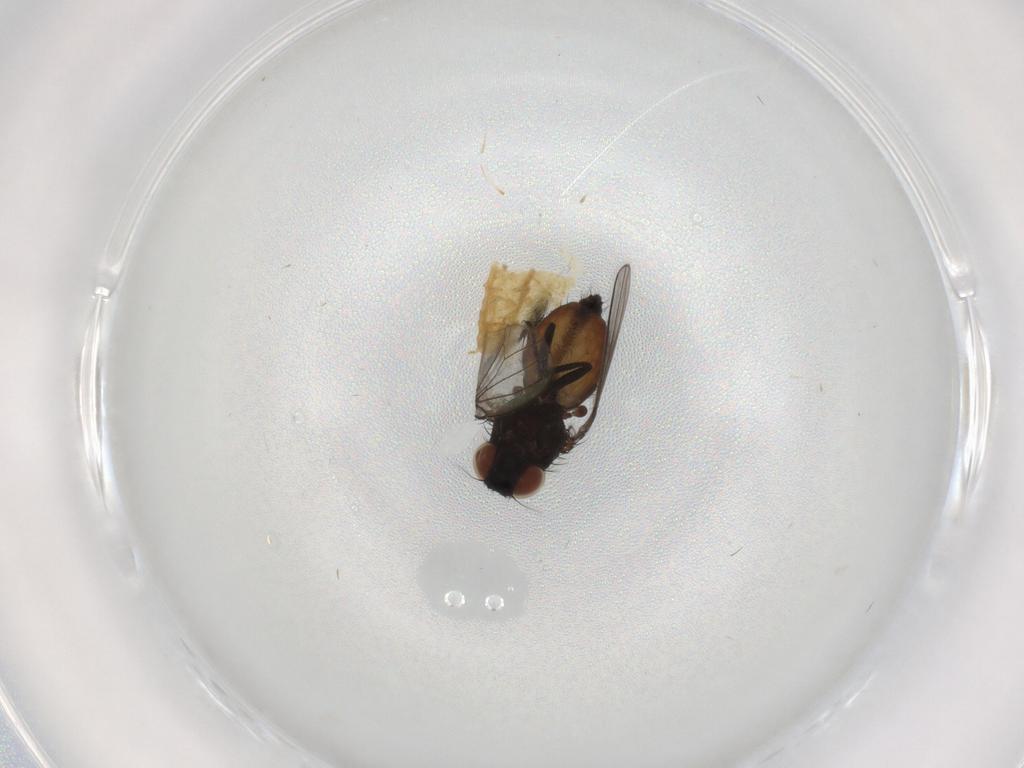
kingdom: Animalia
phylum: Arthropoda
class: Insecta
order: Diptera
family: Milichiidae
